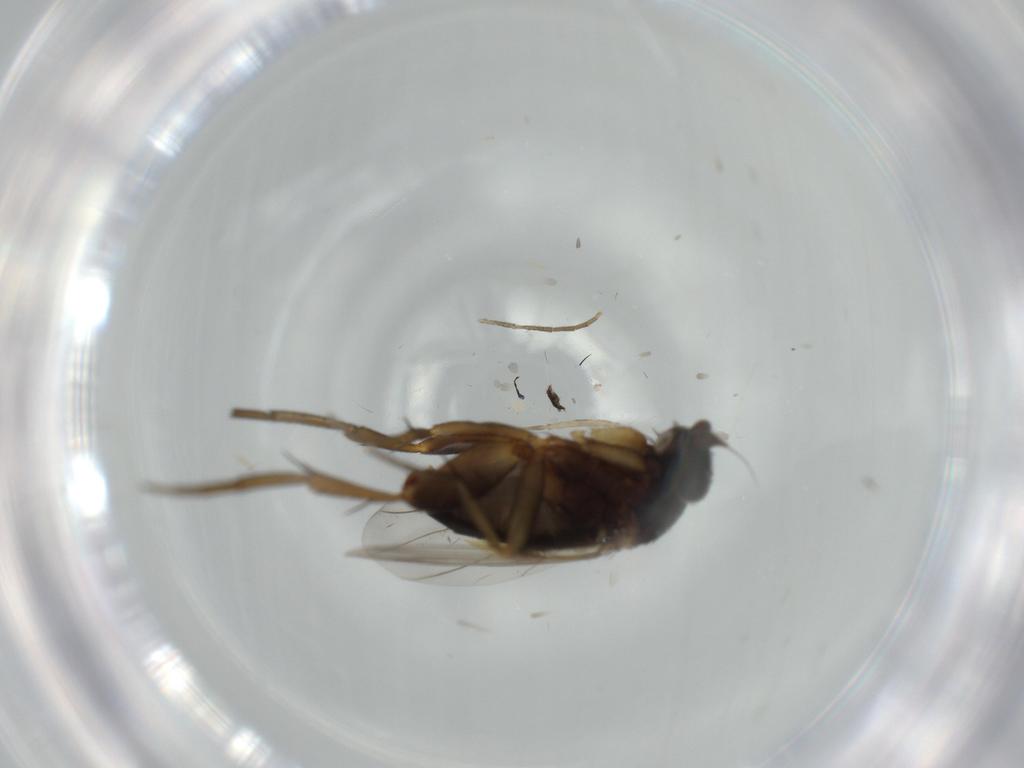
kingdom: Animalia
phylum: Arthropoda
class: Insecta
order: Diptera
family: Psychodidae
